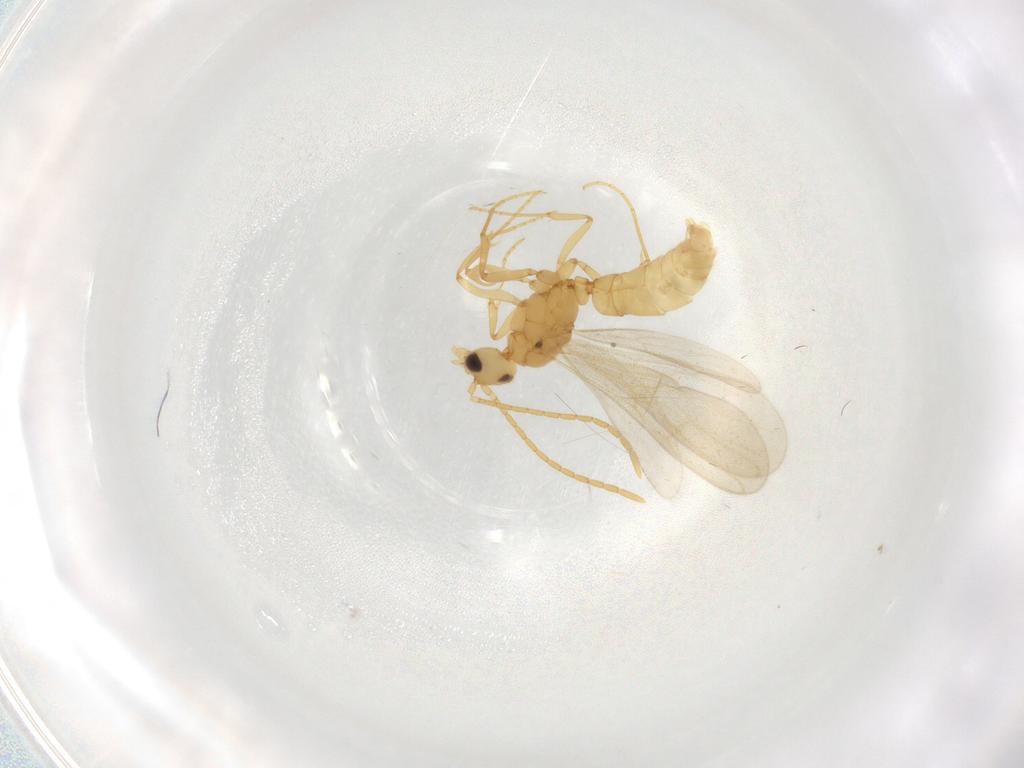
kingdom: Animalia
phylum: Arthropoda
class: Insecta
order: Hymenoptera
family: Formicidae
